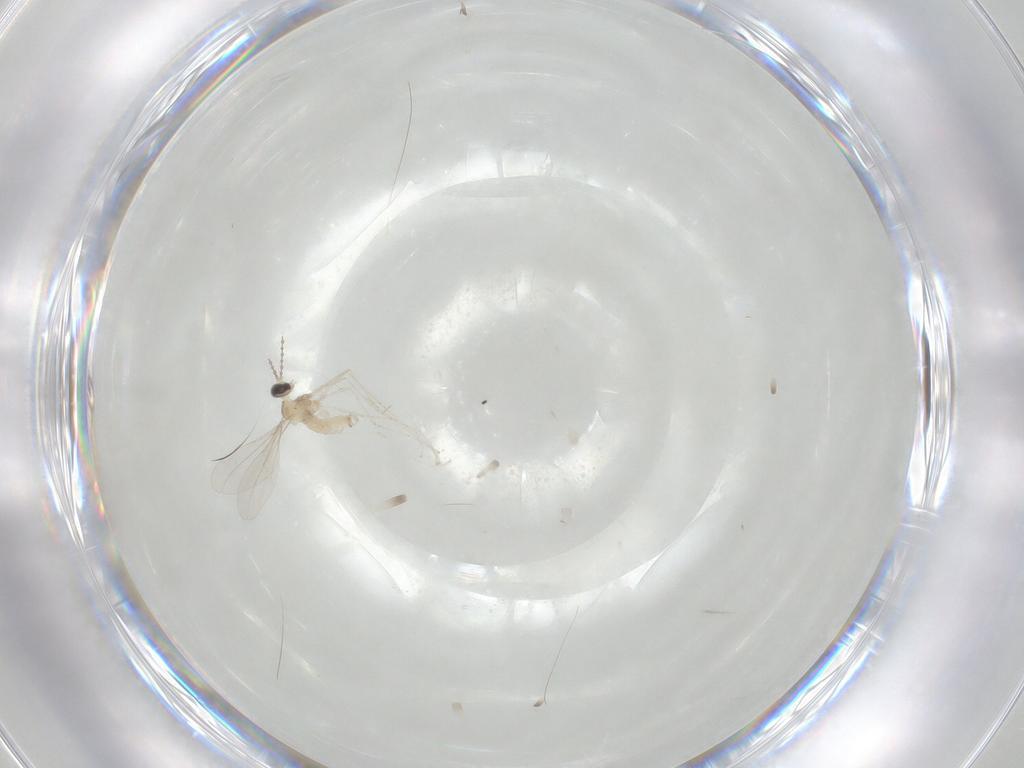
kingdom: Animalia
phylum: Arthropoda
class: Insecta
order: Diptera
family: Cecidomyiidae
